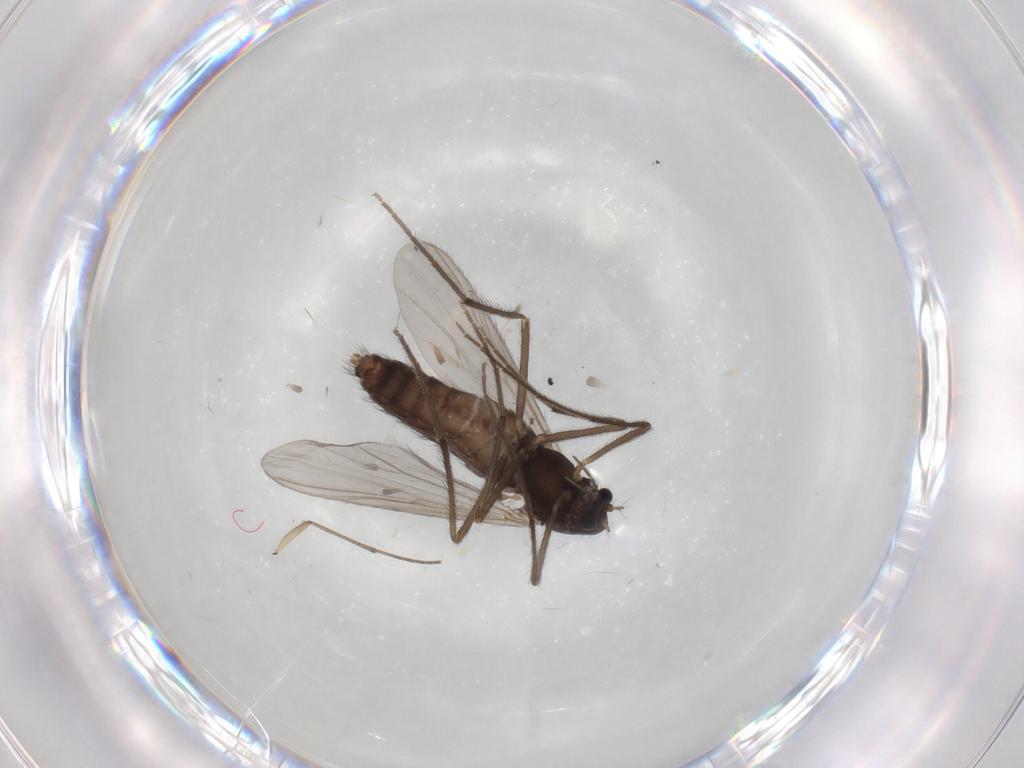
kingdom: Animalia
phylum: Arthropoda
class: Insecta
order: Diptera
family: Chironomidae
